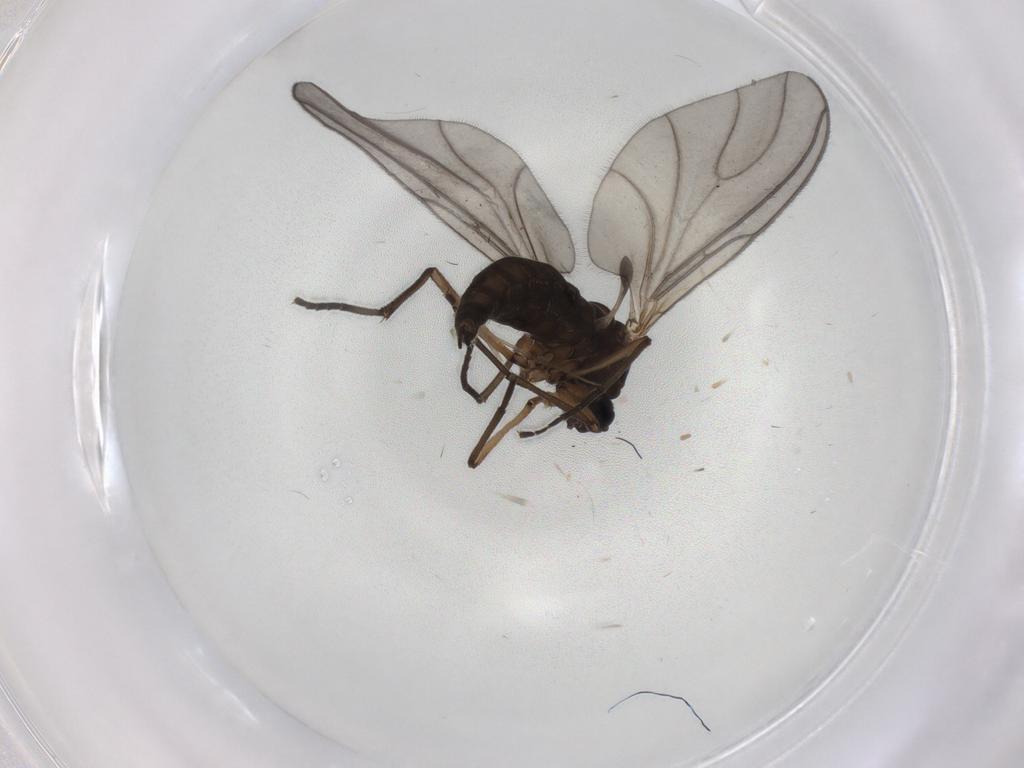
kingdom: Animalia
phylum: Arthropoda
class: Insecta
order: Diptera
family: Sciaridae
